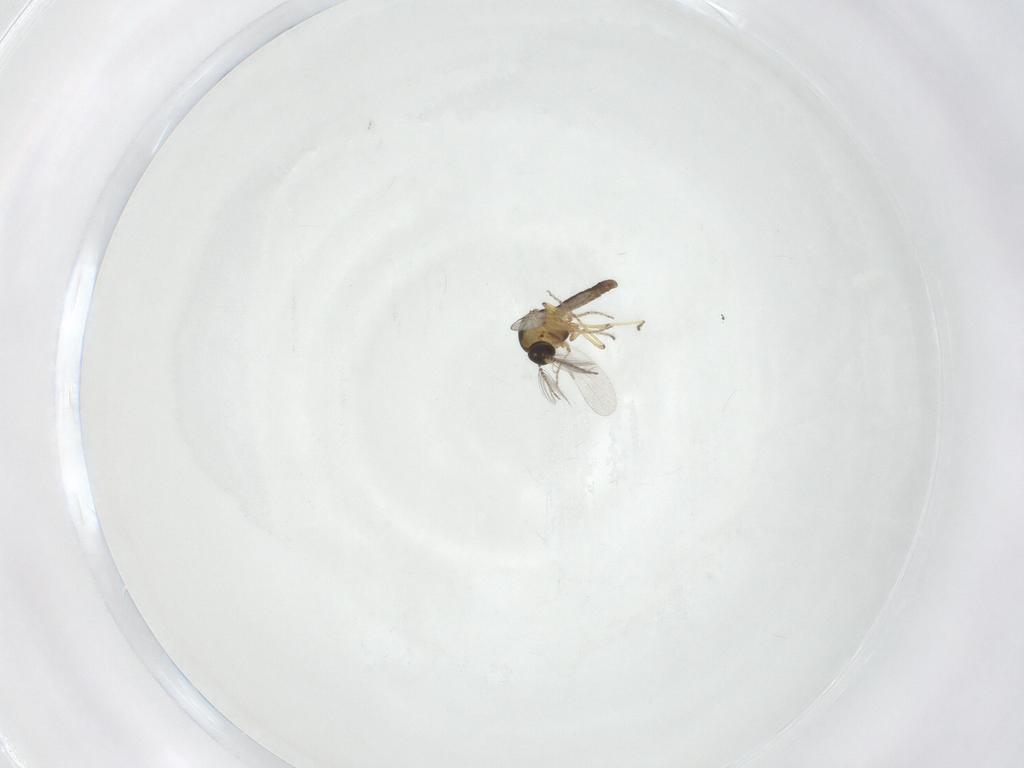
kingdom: Animalia
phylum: Arthropoda
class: Insecta
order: Diptera
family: Ceratopogonidae
